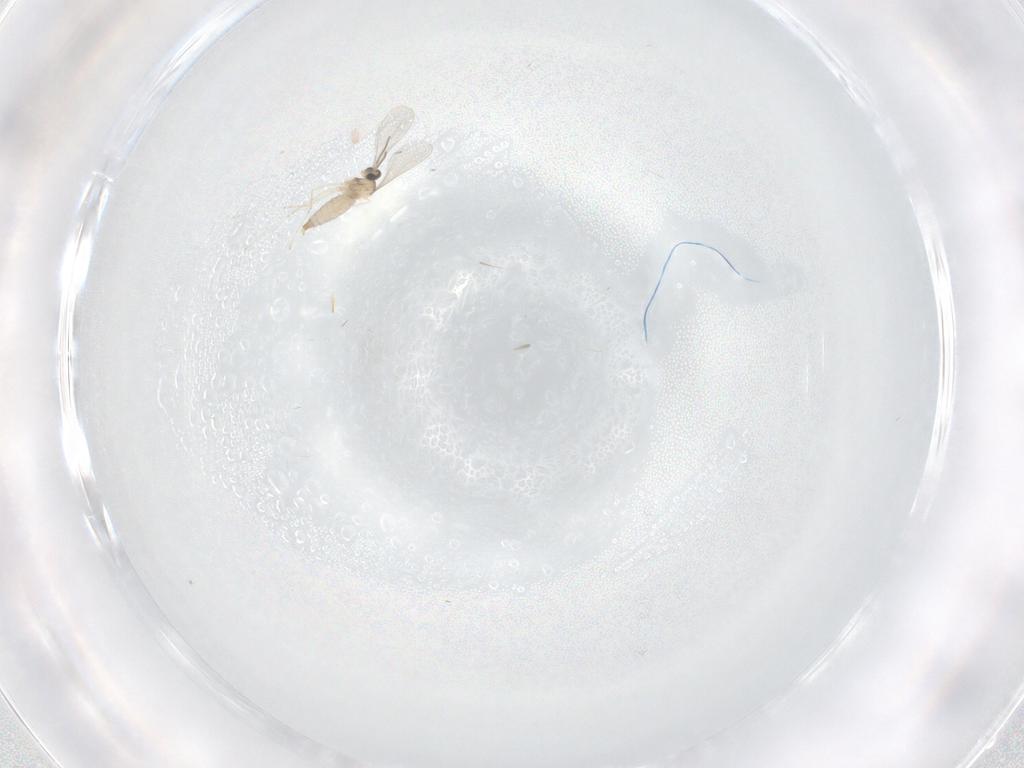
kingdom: Animalia
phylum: Arthropoda
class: Insecta
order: Diptera
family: Cecidomyiidae
